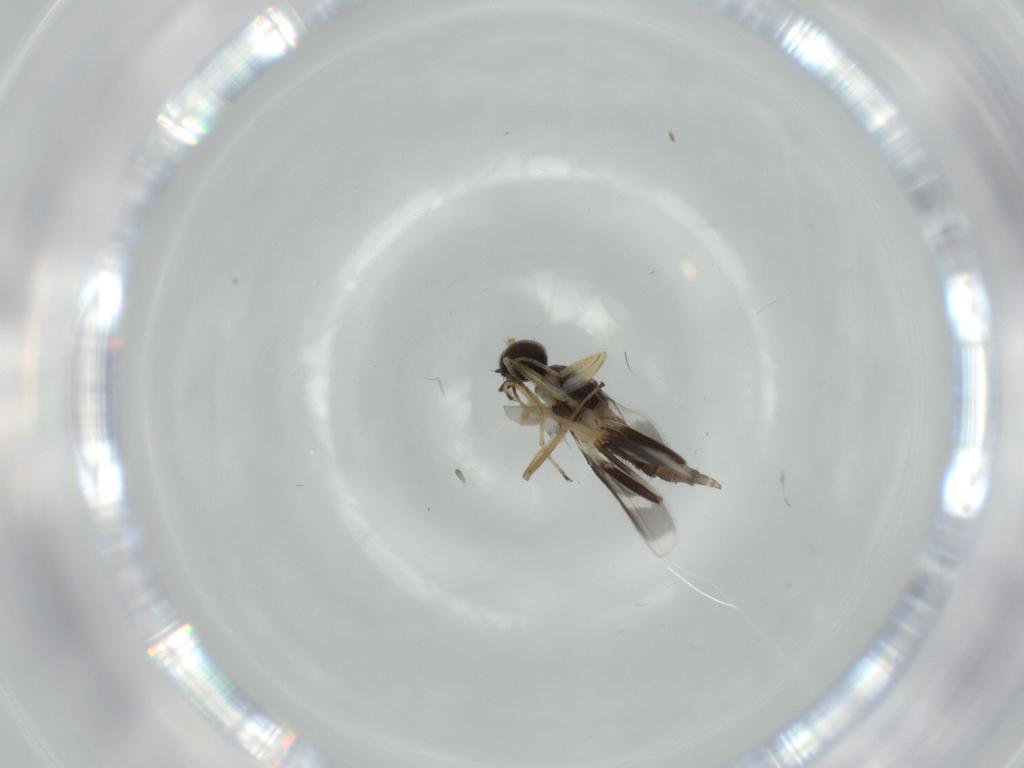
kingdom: Animalia
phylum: Arthropoda
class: Insecta
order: Diptera
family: Hybotidae
